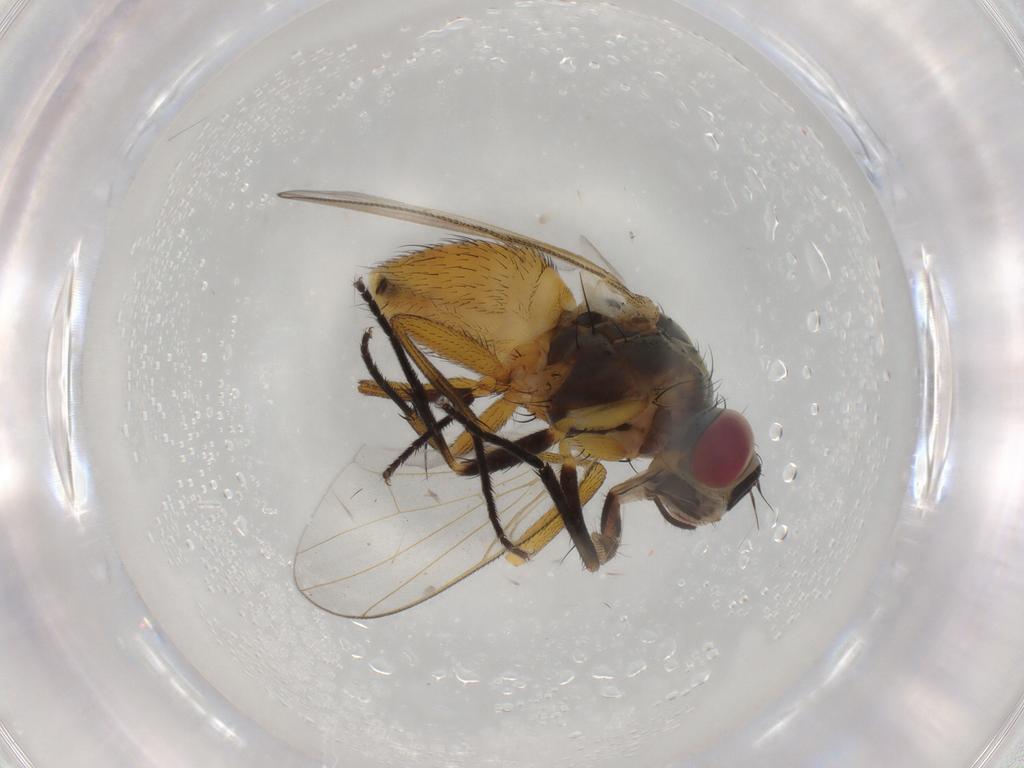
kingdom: Animalia
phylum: Arthropoda
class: Insecta
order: Diptera
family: Muscidae
